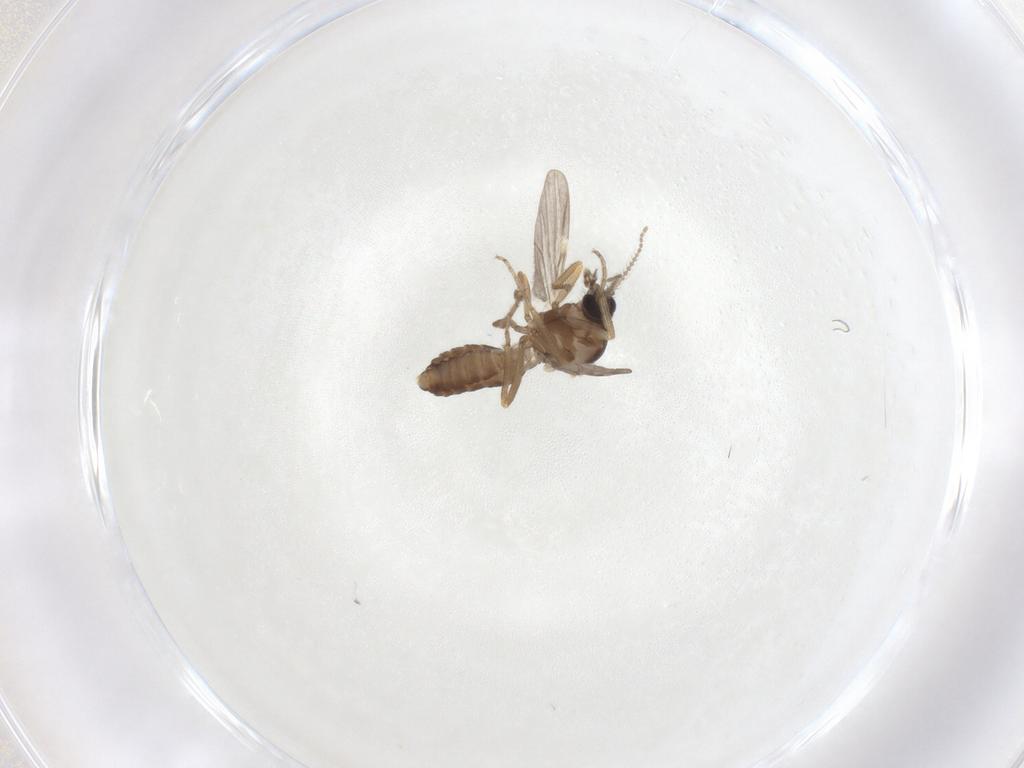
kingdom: Animalia
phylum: Arthropoda
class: Insecta
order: Diptera
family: Ceratopogonidae
